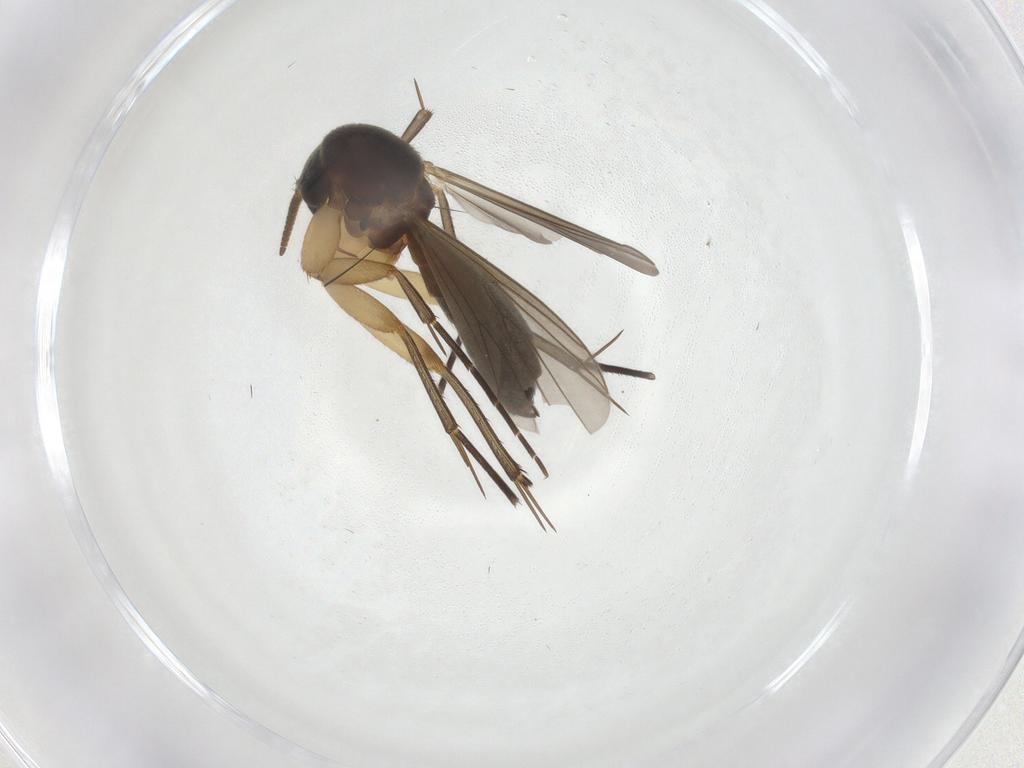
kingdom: Animalia
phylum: Arthropoda
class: Insecta
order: Diptera
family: Mycetophilidae
